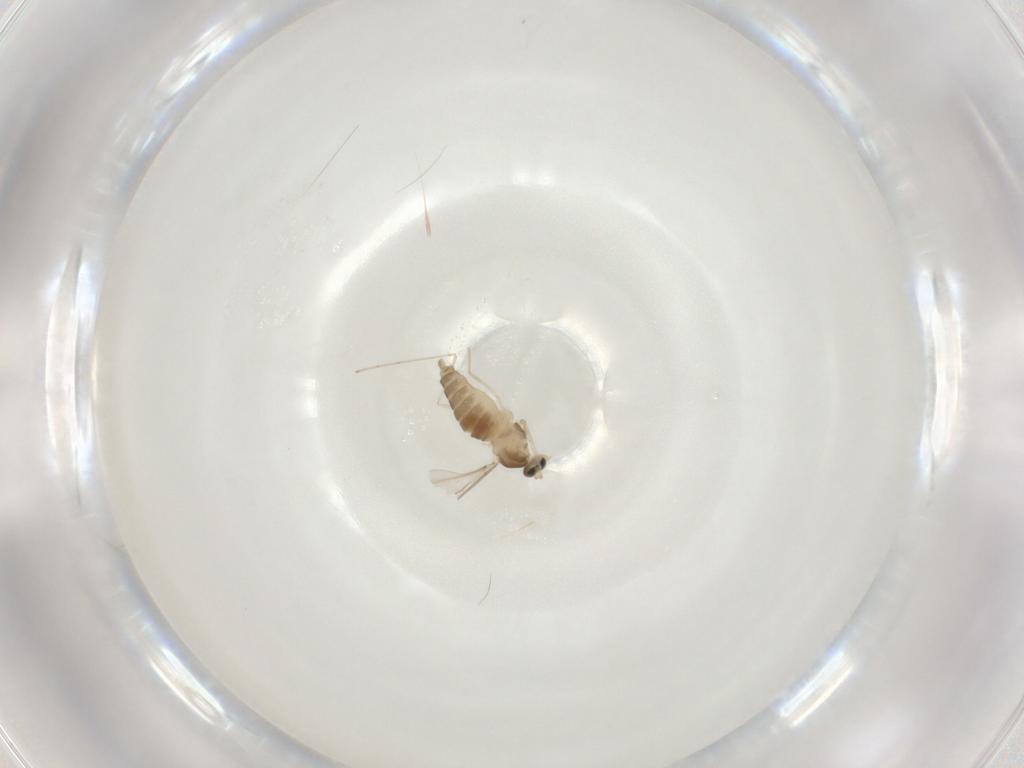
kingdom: Animalia
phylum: Arthropoda
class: Insecta
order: Diptera
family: Cecidomyiidae
